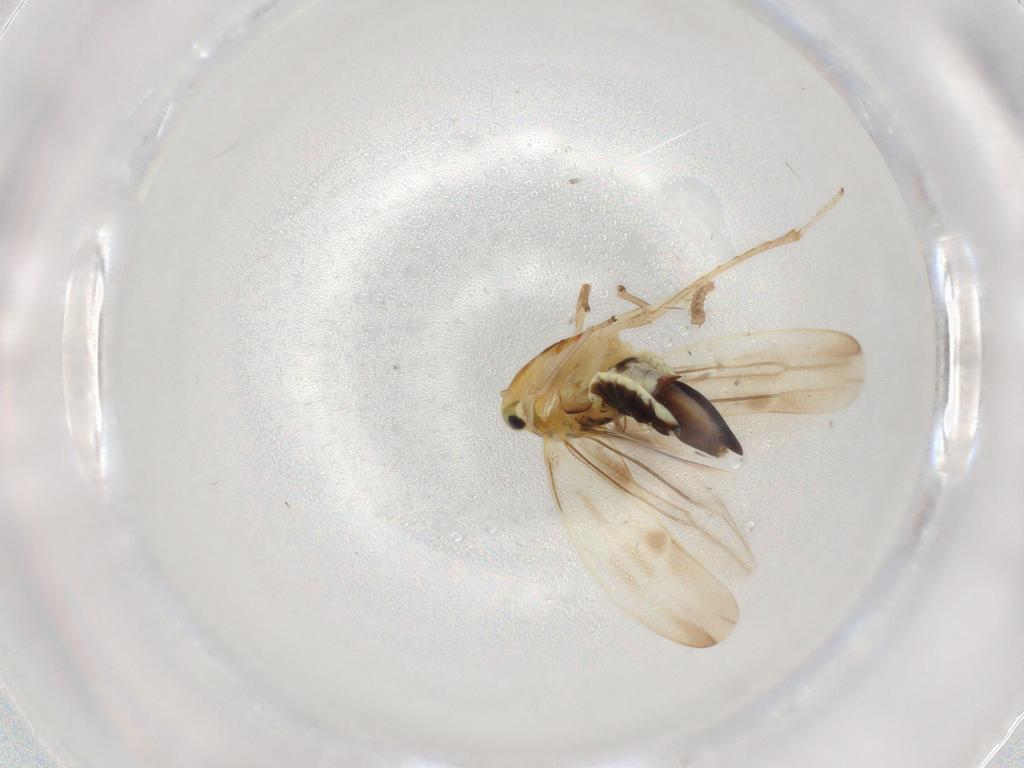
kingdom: Animalia
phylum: Arthropoda
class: Insecta
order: Hemiptera
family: Cicadellidae
